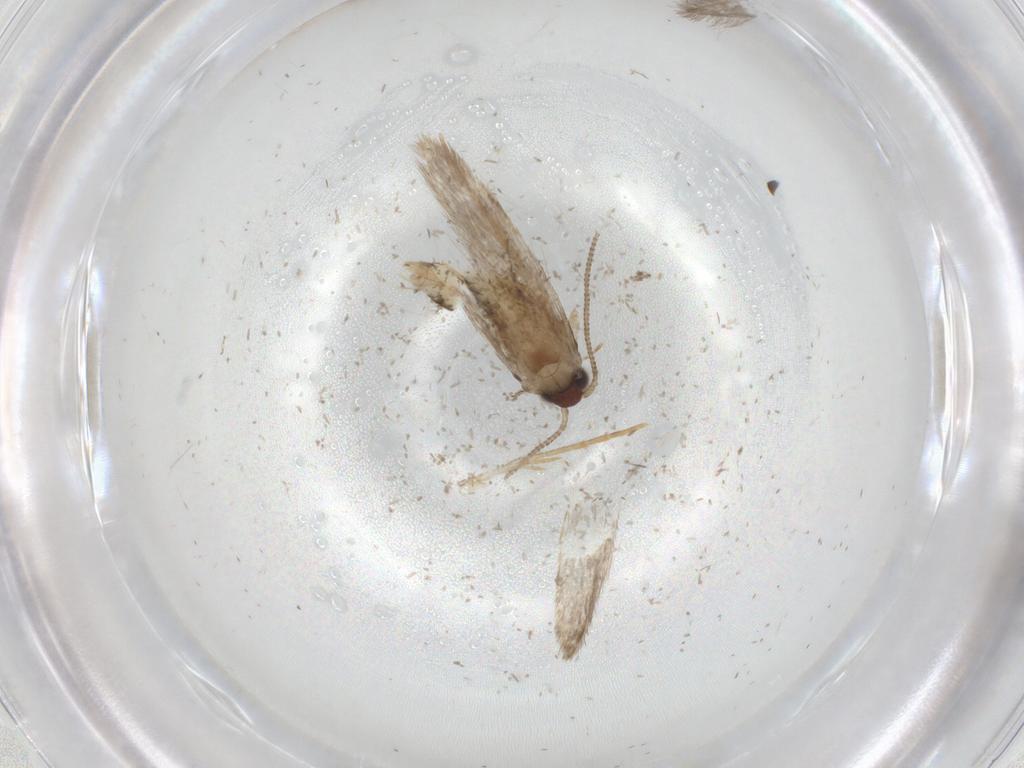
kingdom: Animalia
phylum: Arthropoda
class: Insecta
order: Lepidoptera
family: Tineidae
